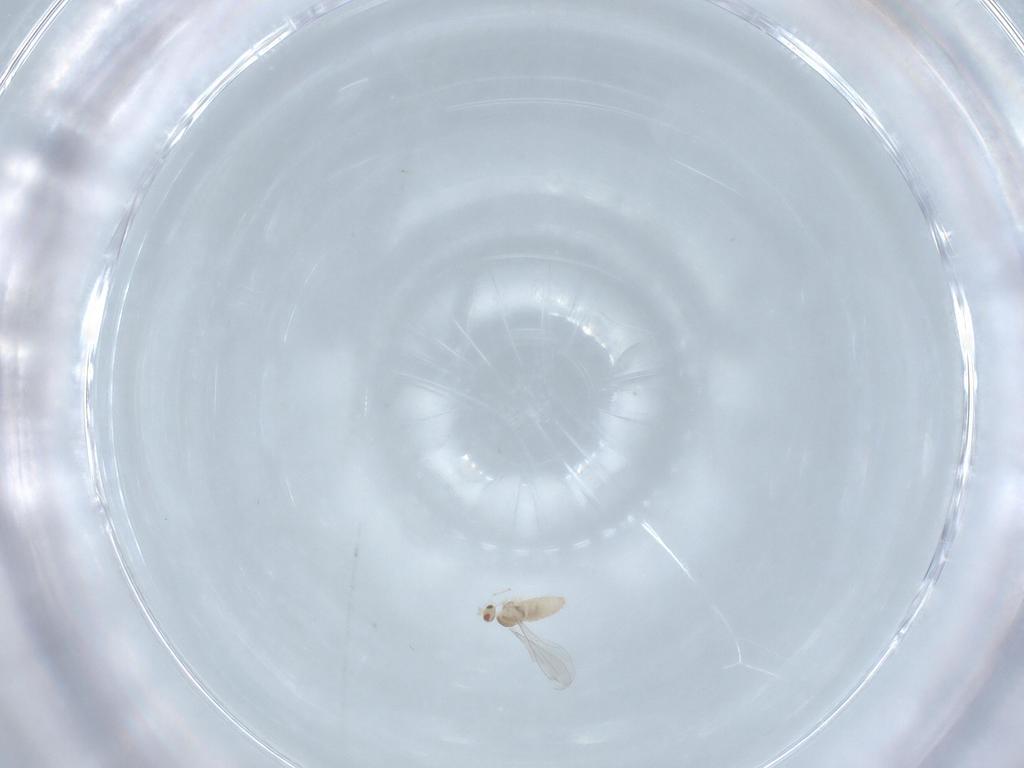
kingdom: Animalia
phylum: Arthropoda
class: Insecta
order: Diptera
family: Cecidomyiidae
